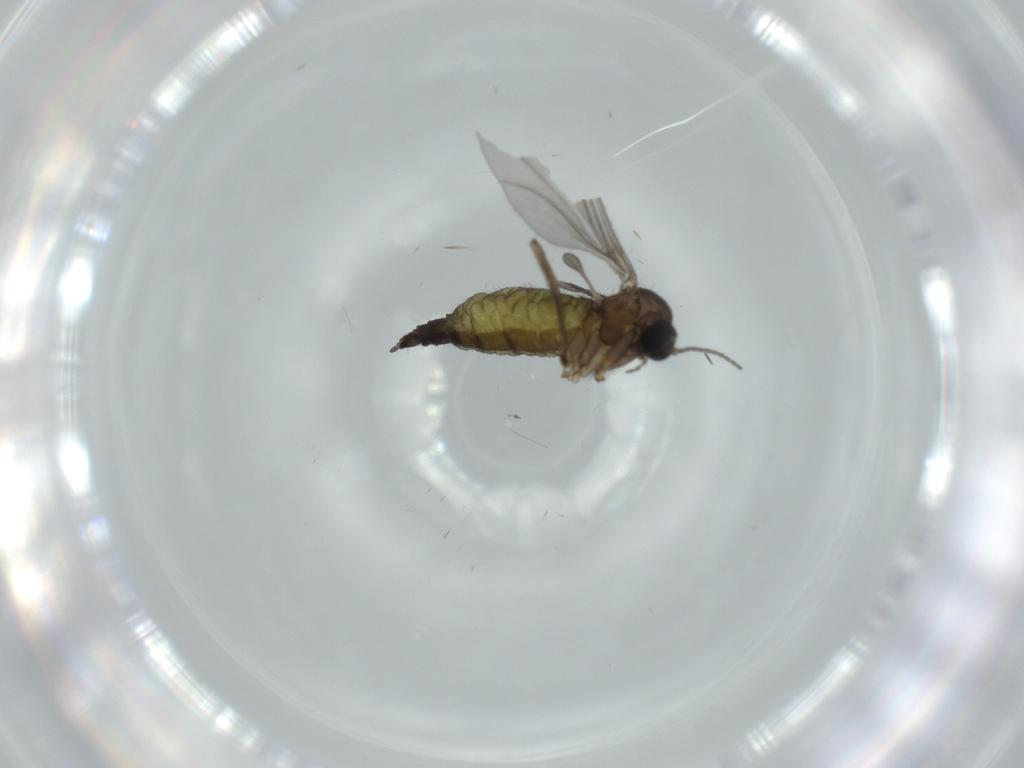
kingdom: Animalia
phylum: Arthropoda
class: Insecta
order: Diptera
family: Sciaridae
